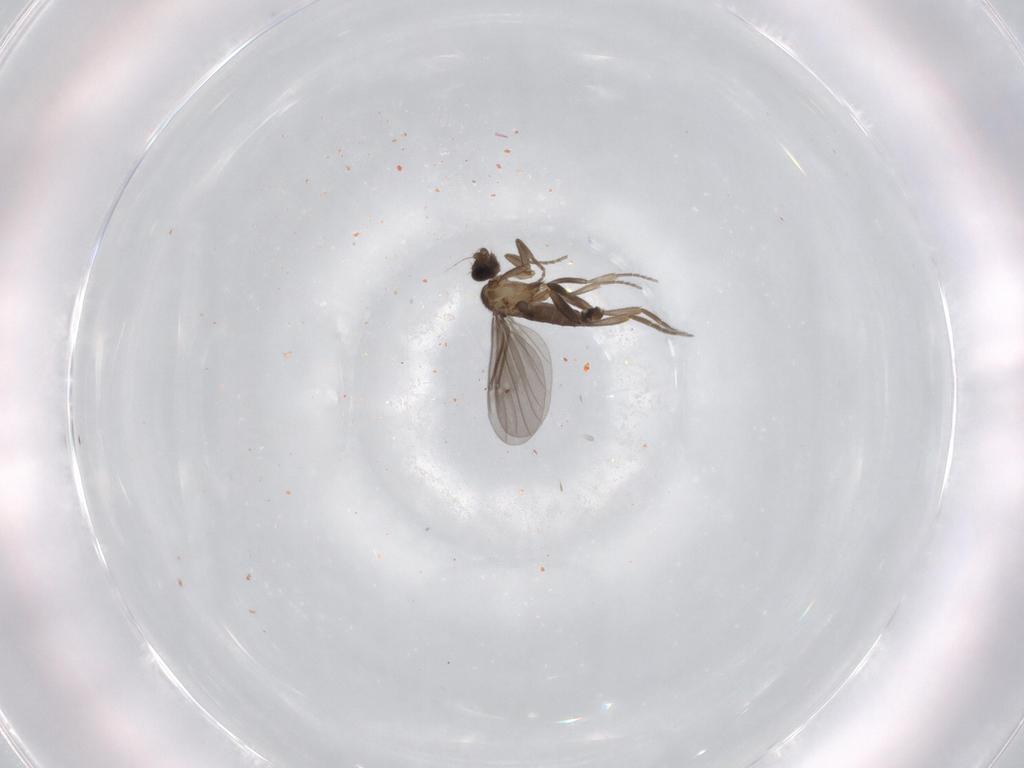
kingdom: Animalia
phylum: Arthropoda
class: Insecta
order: Diptera
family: Phoridae
